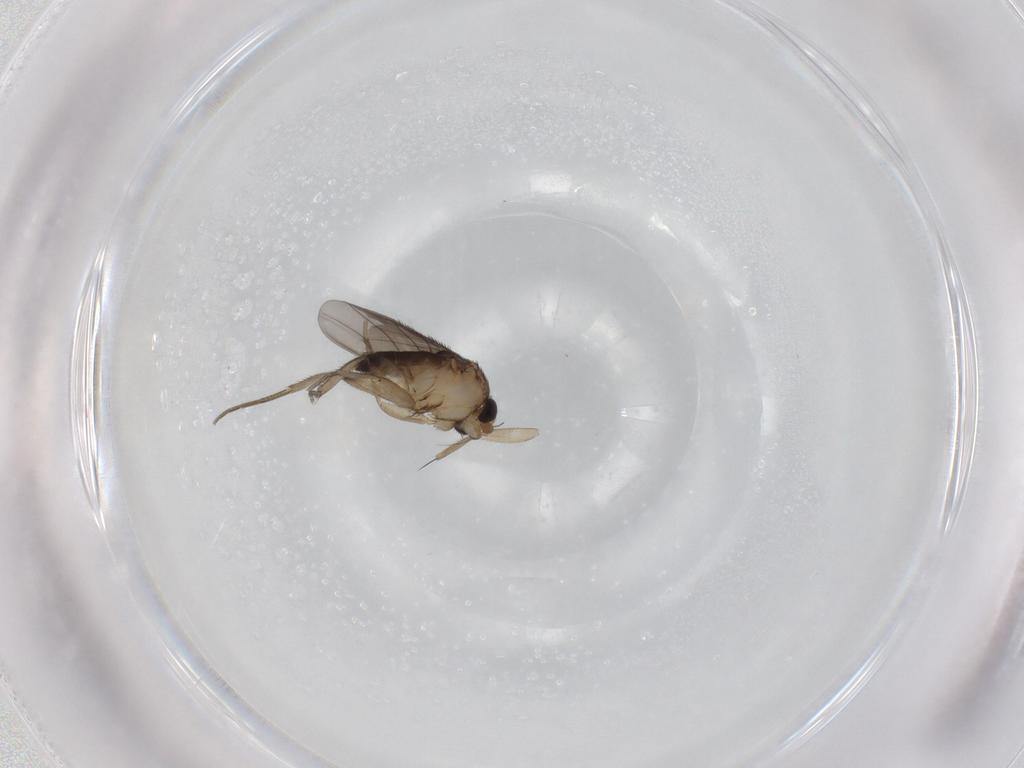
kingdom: Animalia
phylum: Arthropoda
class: Insecta
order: Diptera
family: Phoridae
